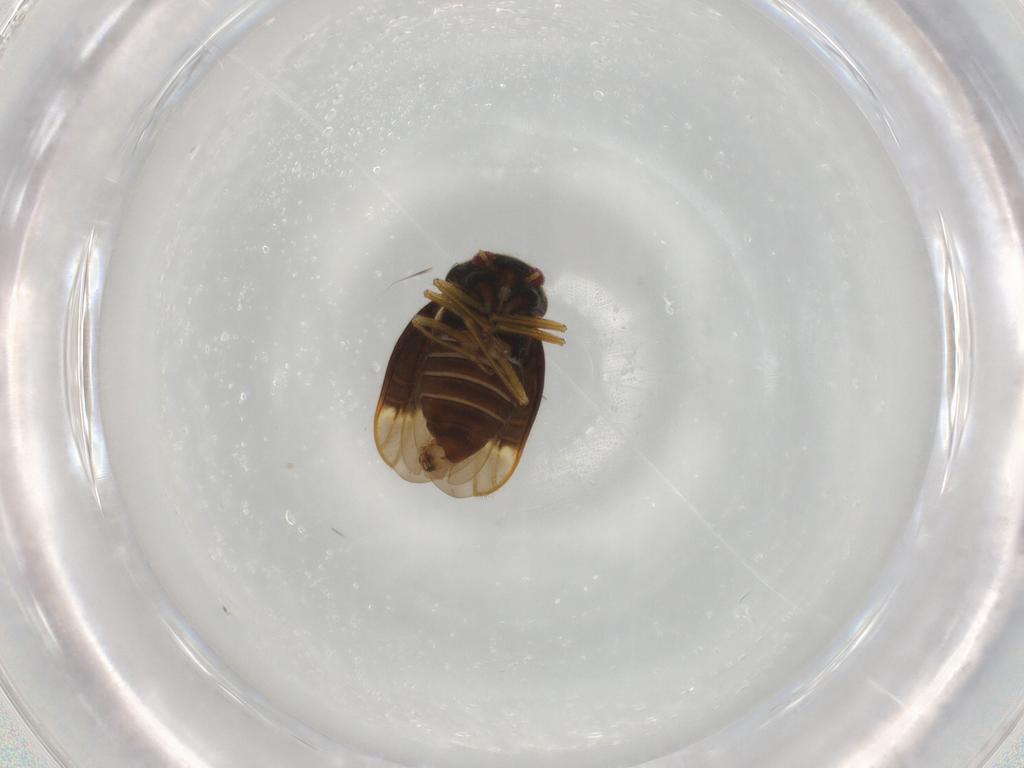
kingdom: Animalia
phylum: Arthropoda
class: Insecta
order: Hemiptera
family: Schizopteridae
